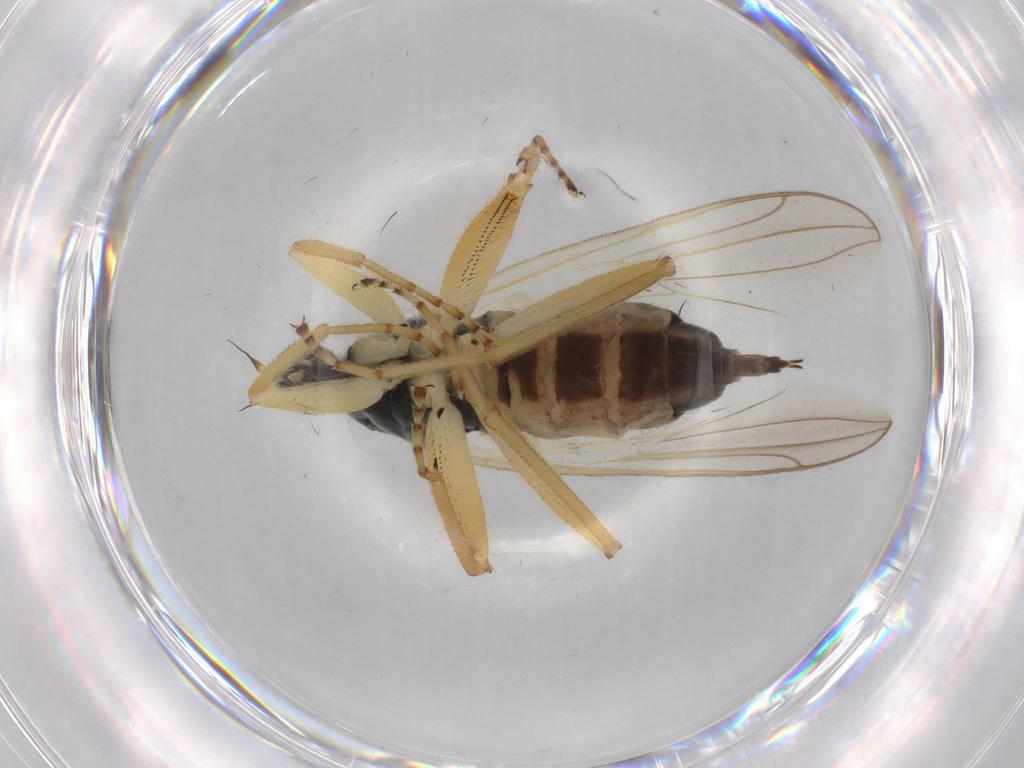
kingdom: Animalia
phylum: Arthropoda
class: Insecta
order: Diptera
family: Hybotidae
